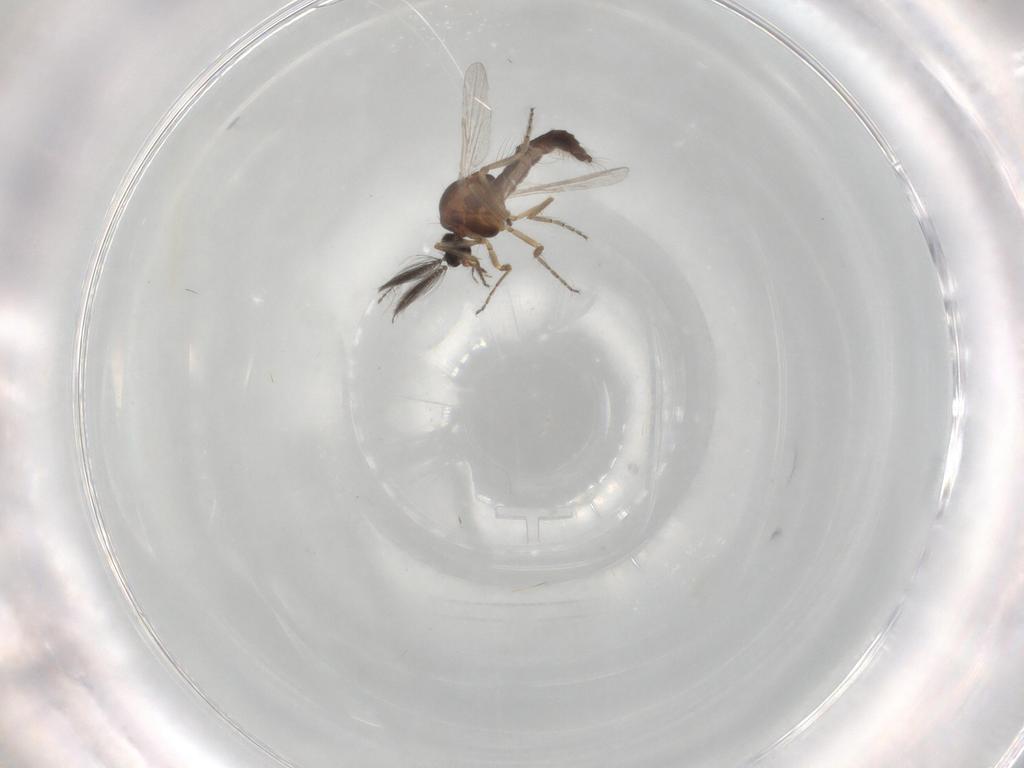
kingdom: Animalia
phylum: Arthropoda
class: Insecta
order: Diptera
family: Ceratopogonidae
